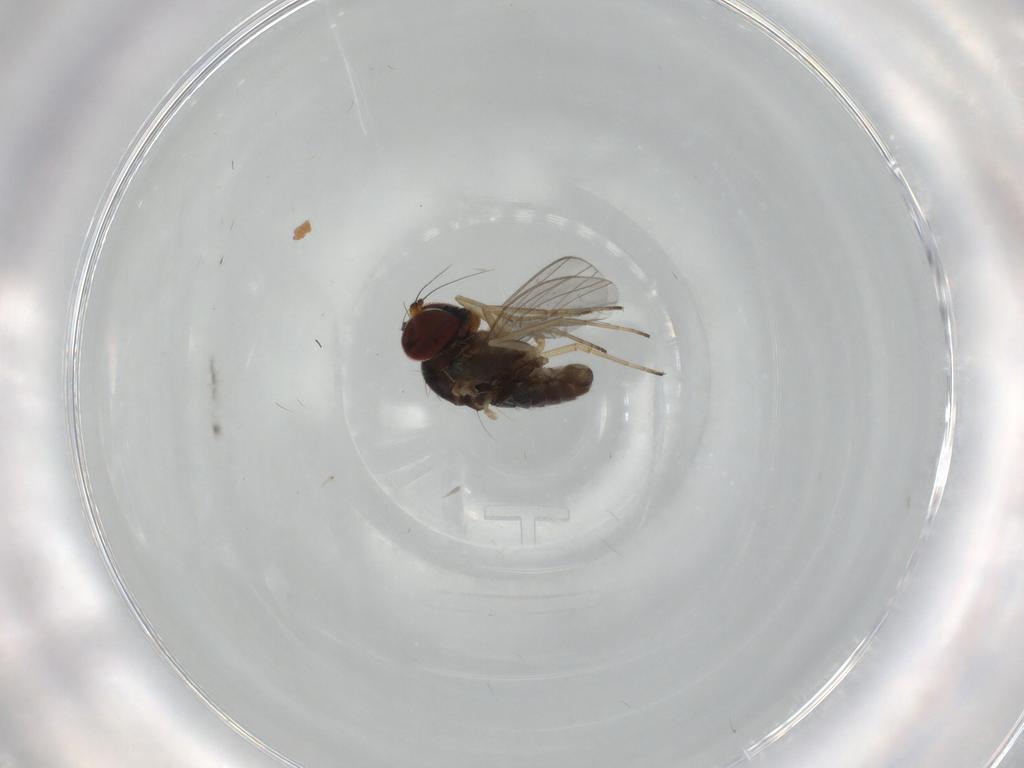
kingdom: Animalia
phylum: Arthropoda
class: Insecta
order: Diptera
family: Dolichopodidae
